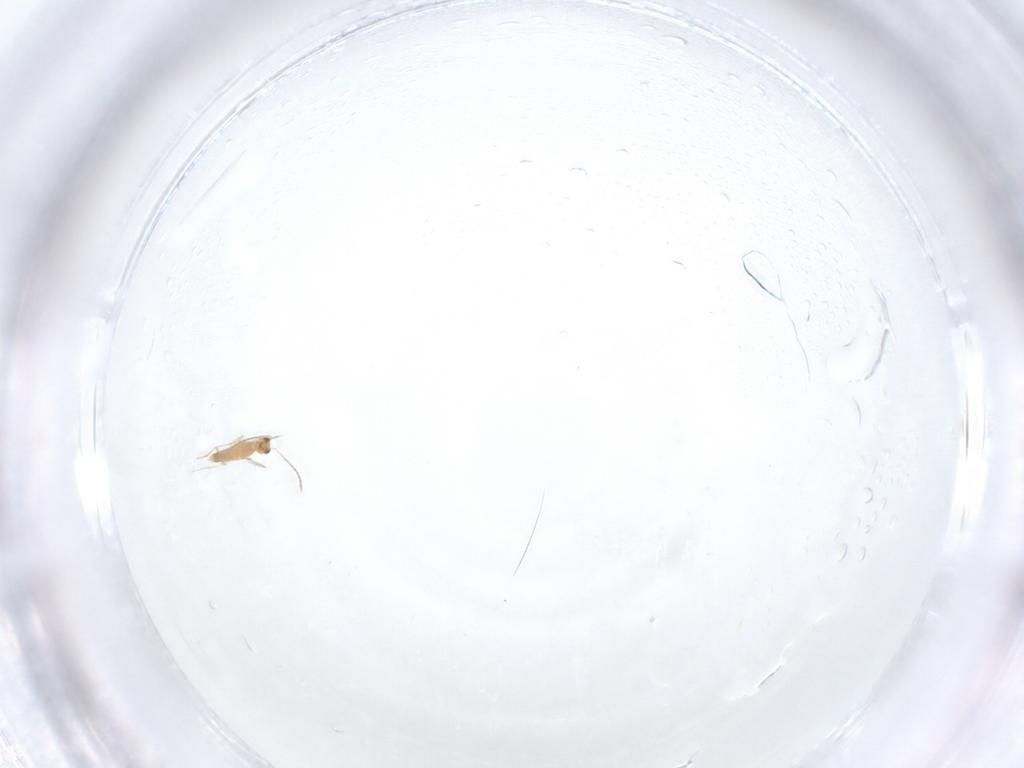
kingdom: Animalia
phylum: Arthropoda
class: Insecta
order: Hymenoptera
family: Mymaridae
